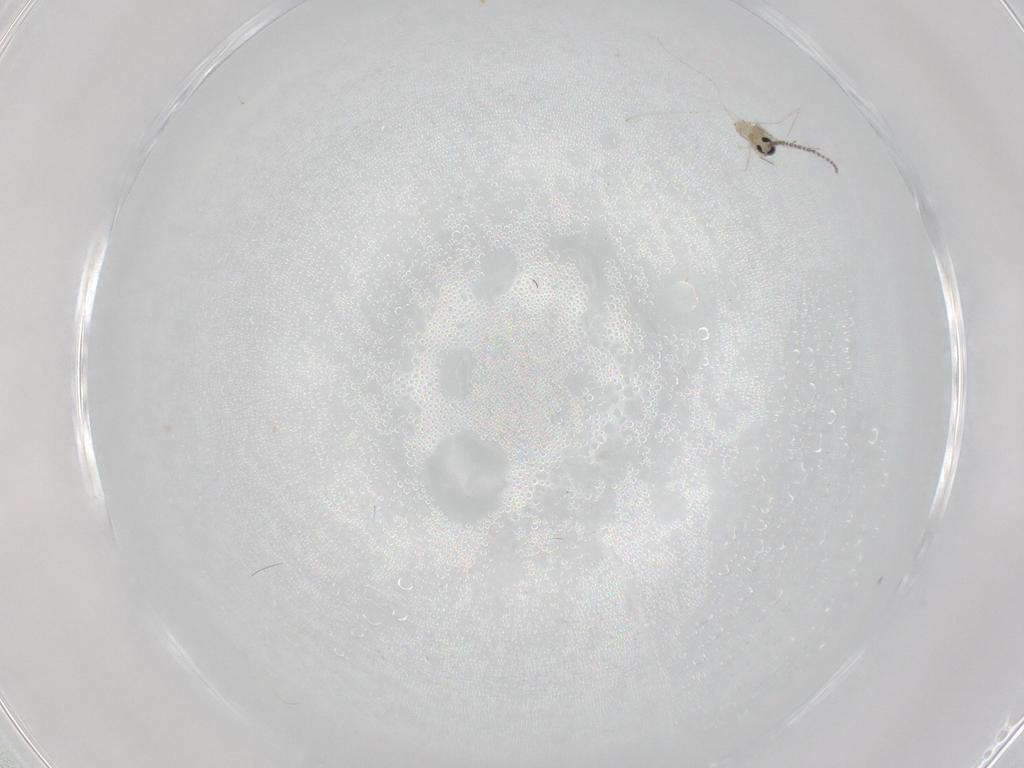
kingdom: Animalia
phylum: Arthropoda
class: Insecta
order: Diptera
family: Cecidomyiidae
